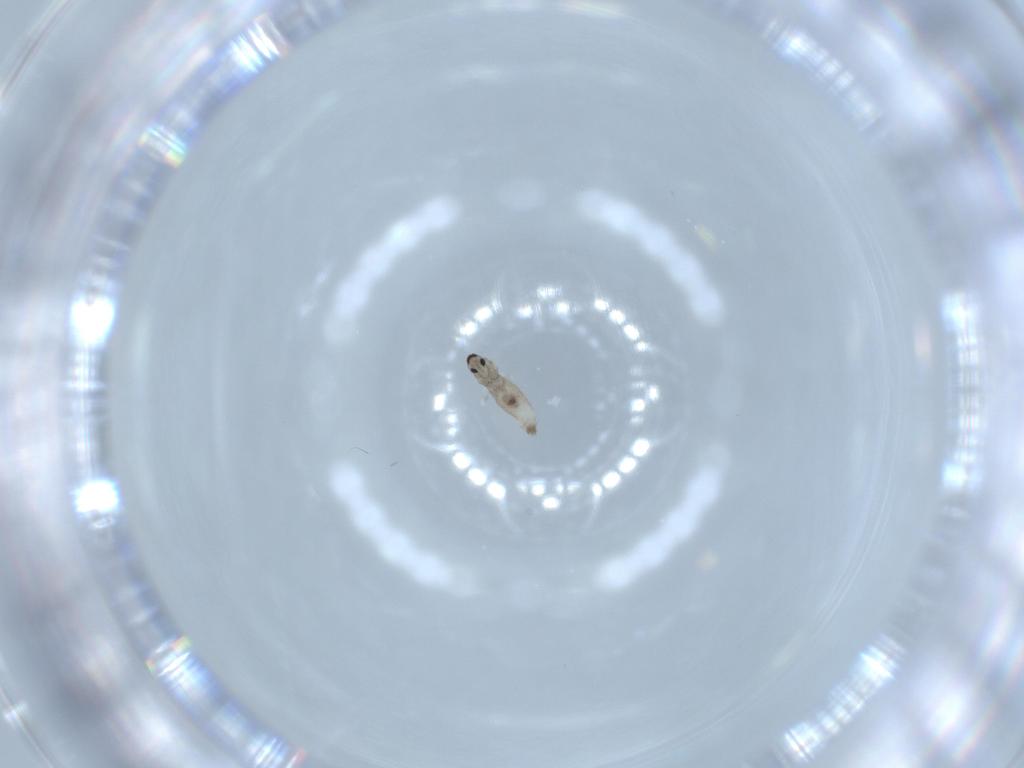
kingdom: Animalia
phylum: Arthropoda
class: Insecta
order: Diptera
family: Cecidomyiidae
